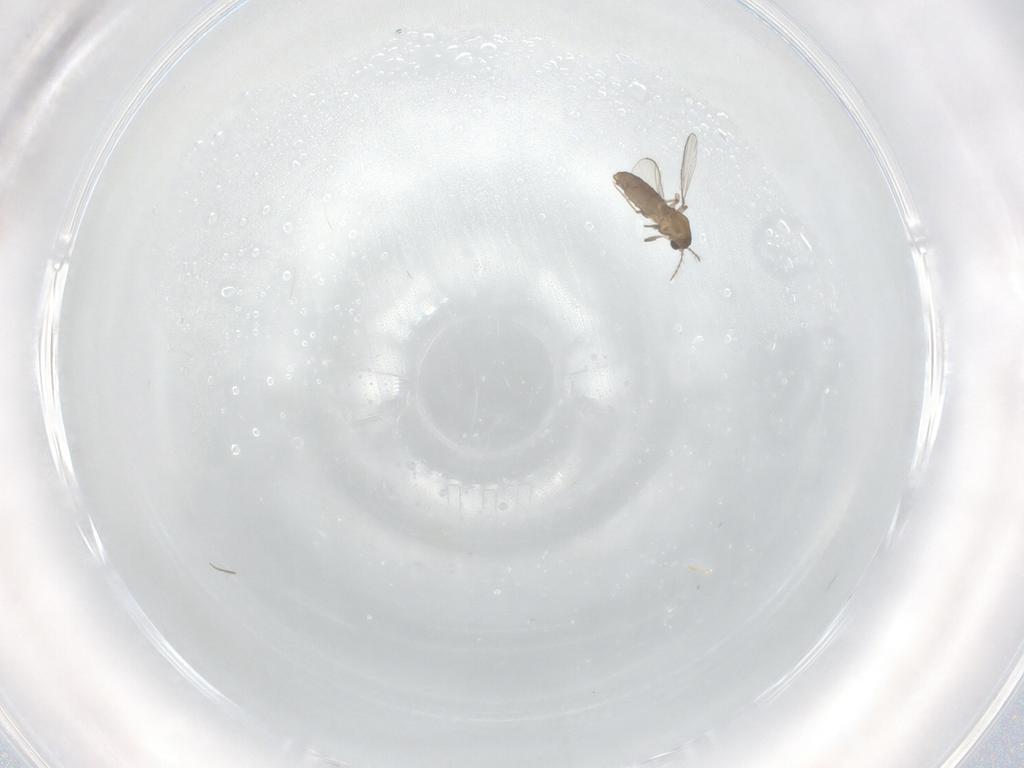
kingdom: Animalia
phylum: Arthropoda
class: Insecta
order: Diptera
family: Chironomidae
